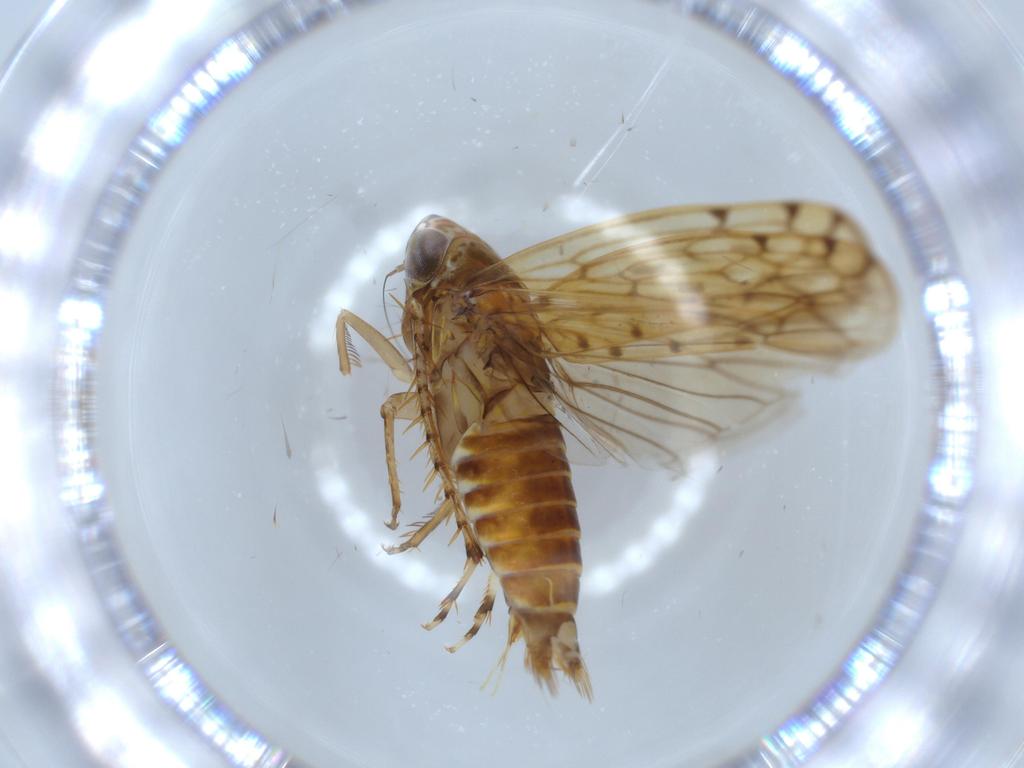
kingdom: Animalia
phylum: Arthropoda
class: Insecta
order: Hemiptera
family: Cicadellidae
